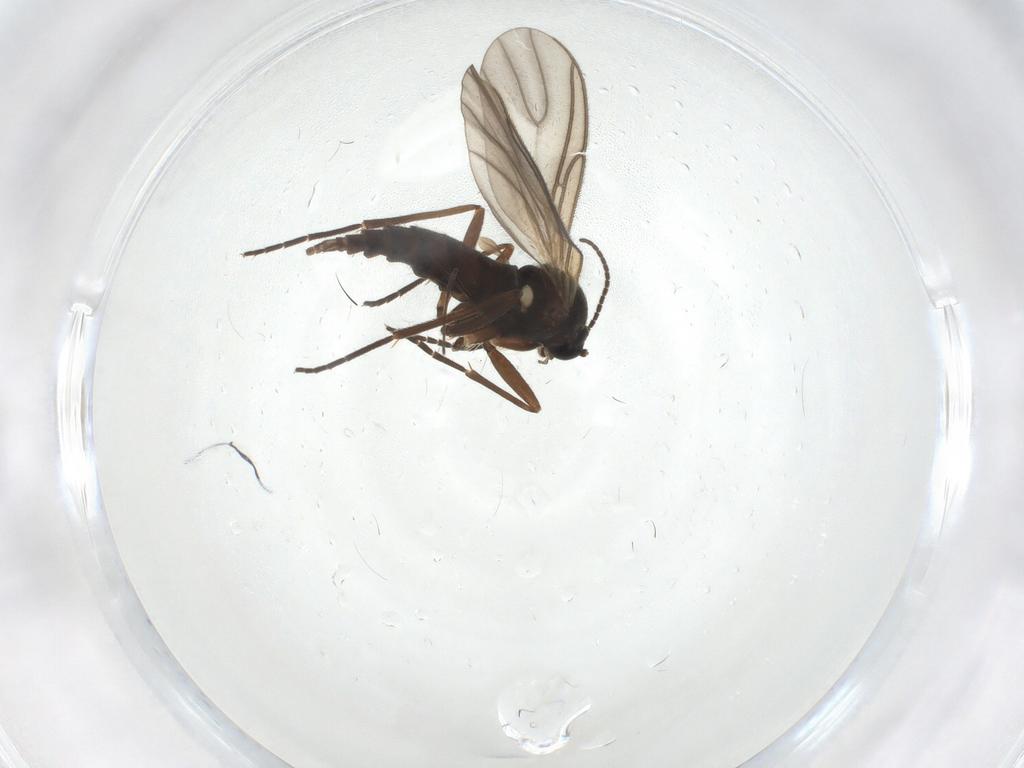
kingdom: Animalia
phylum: Arthropoda
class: Insecta
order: Diptera
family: Sciaridae
